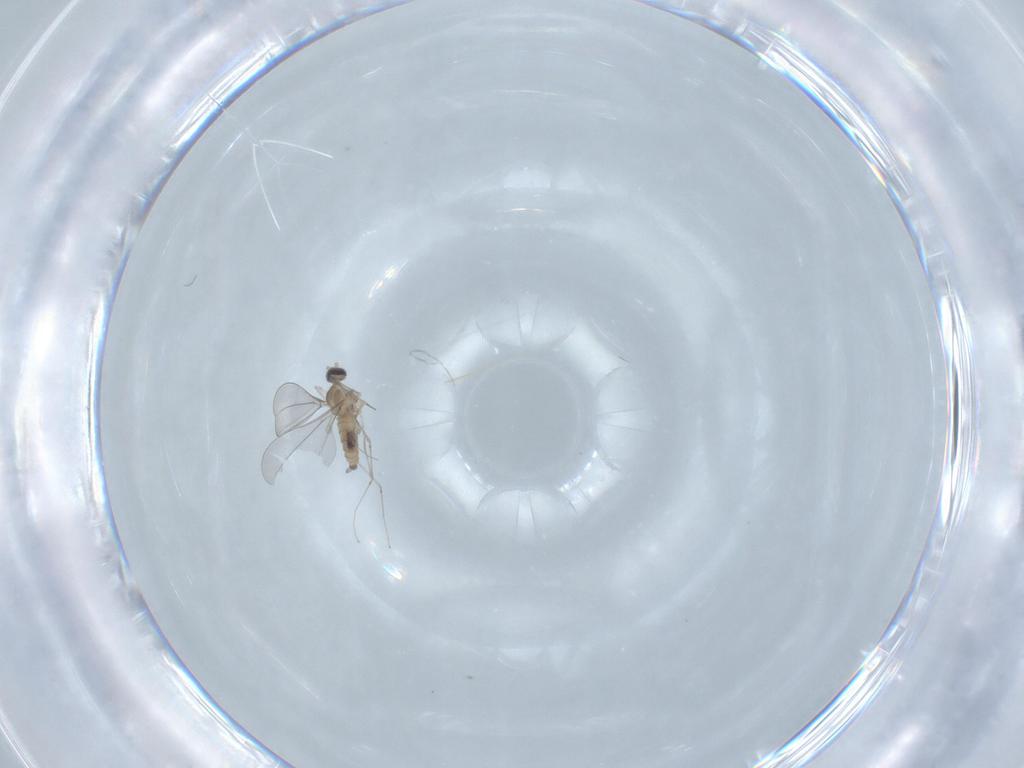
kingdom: Animalia
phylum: Arthropoda
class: Insecta
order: Diptera
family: Cecidomyiidae
